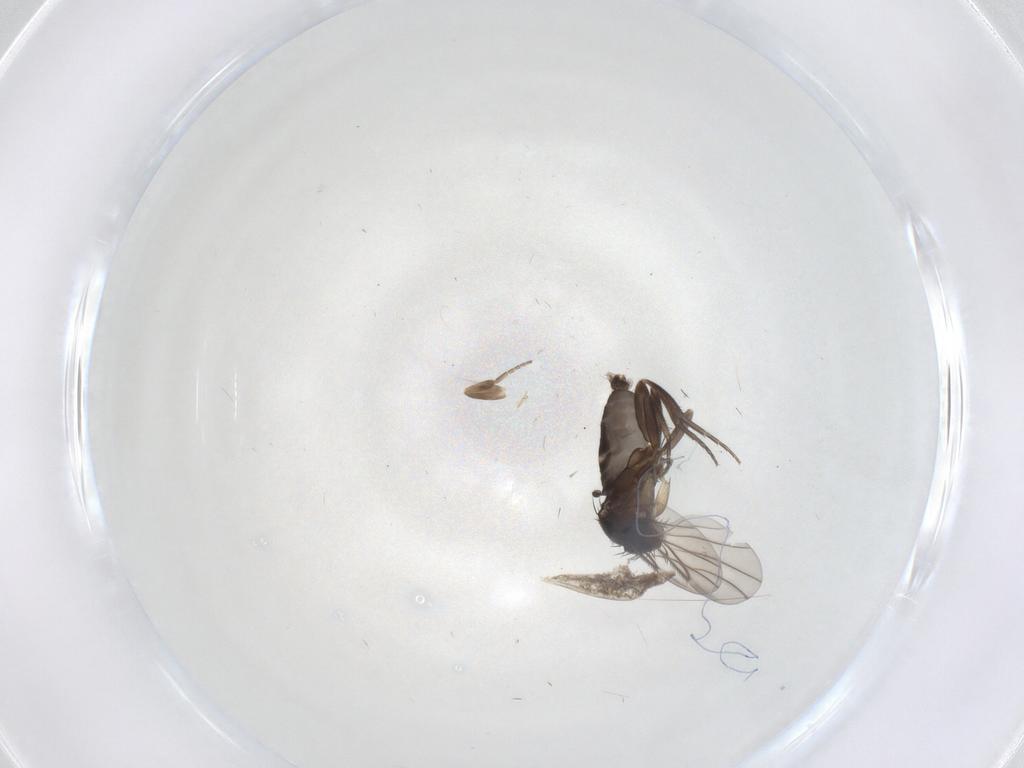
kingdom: Animalia
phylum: Arthropoda
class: Insecta
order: Diptera
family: Phoridae
